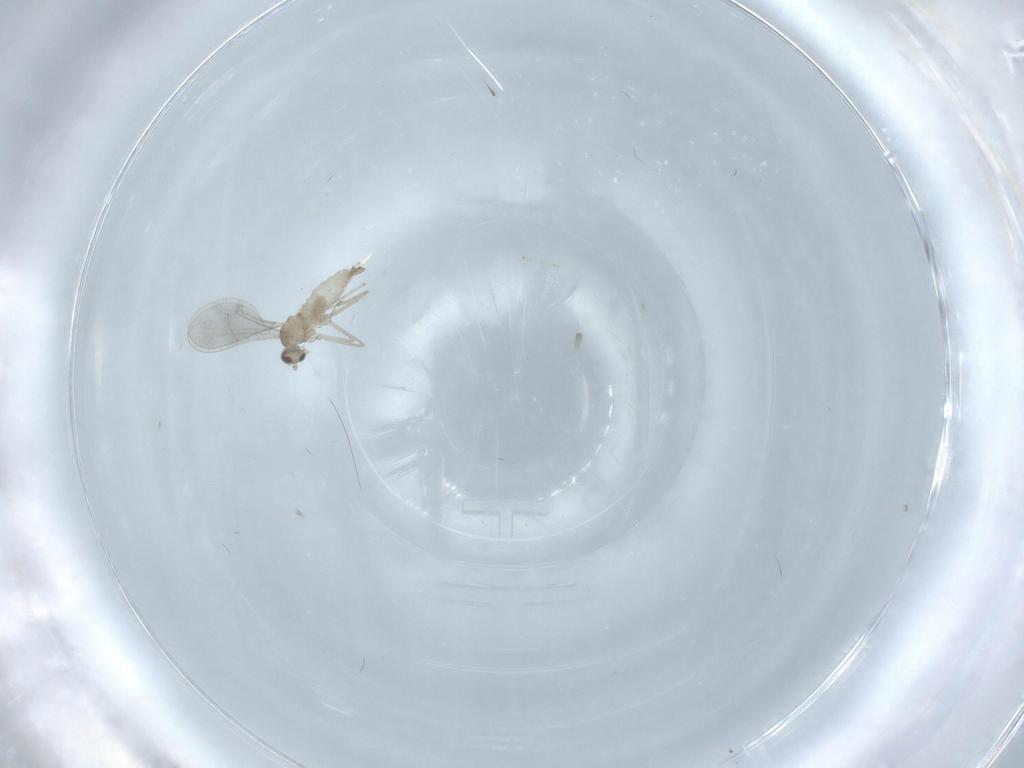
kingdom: Animalia
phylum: Arthropoda
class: Insecta
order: Diptera
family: Cecidomyiidae
